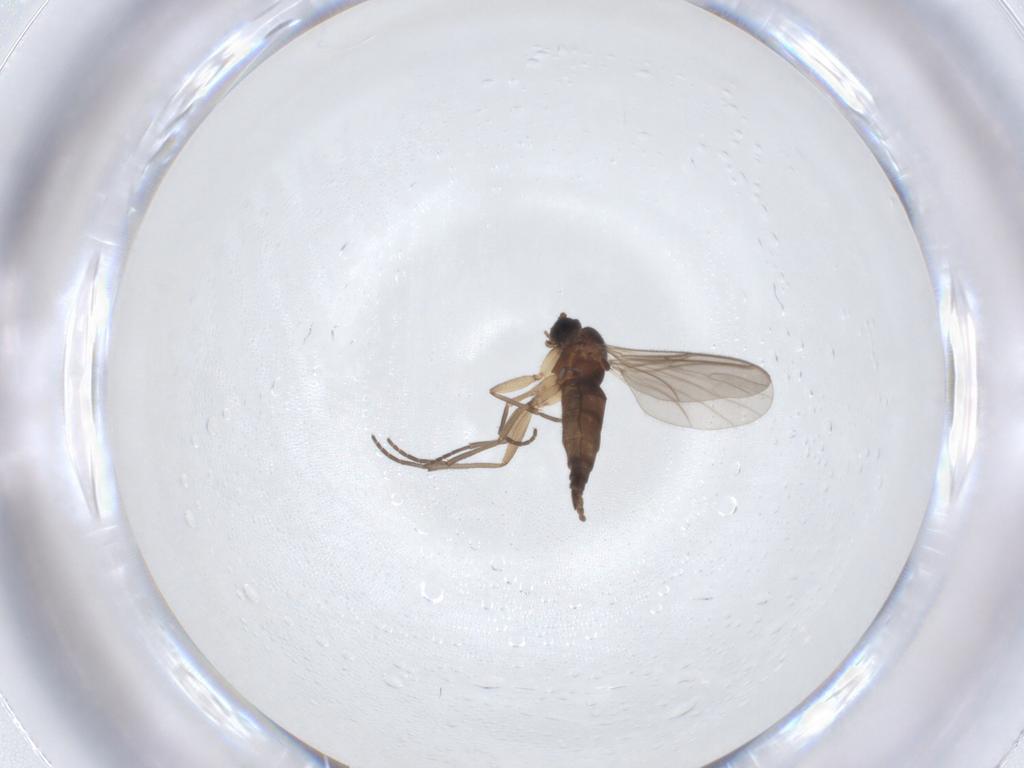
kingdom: Animalia
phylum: Arthropoda
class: Insecta
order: Diptera
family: Sciaridae
